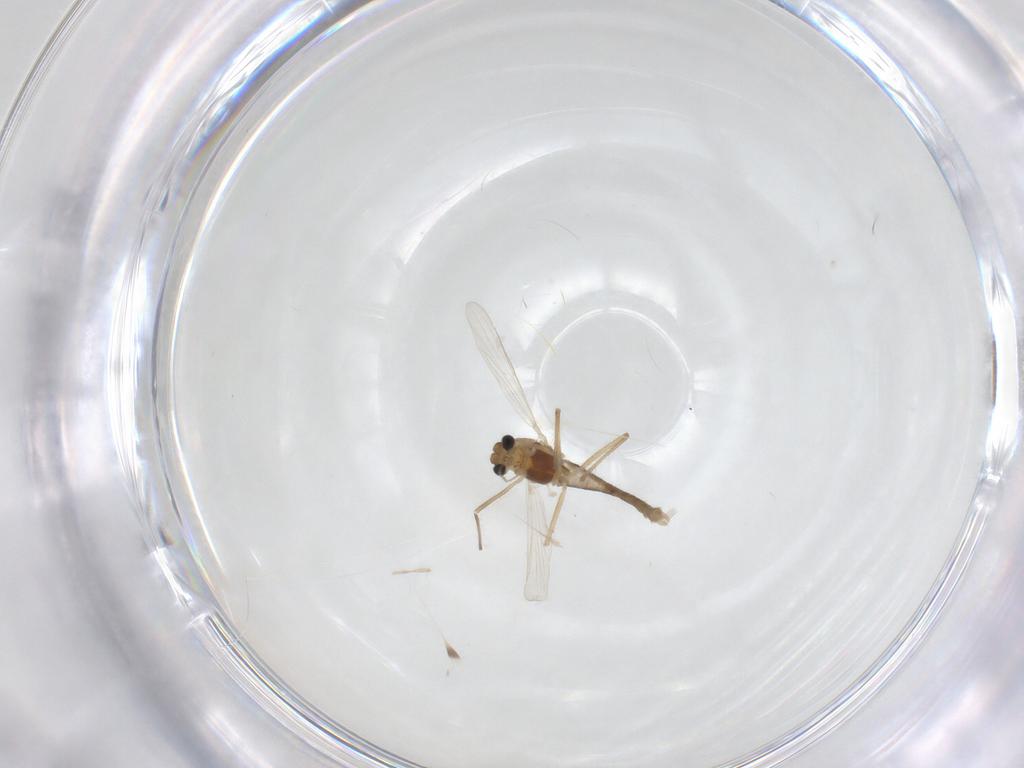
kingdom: Animalia
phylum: Arthropoda
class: Insecta
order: Diptera
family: Chironomidae
